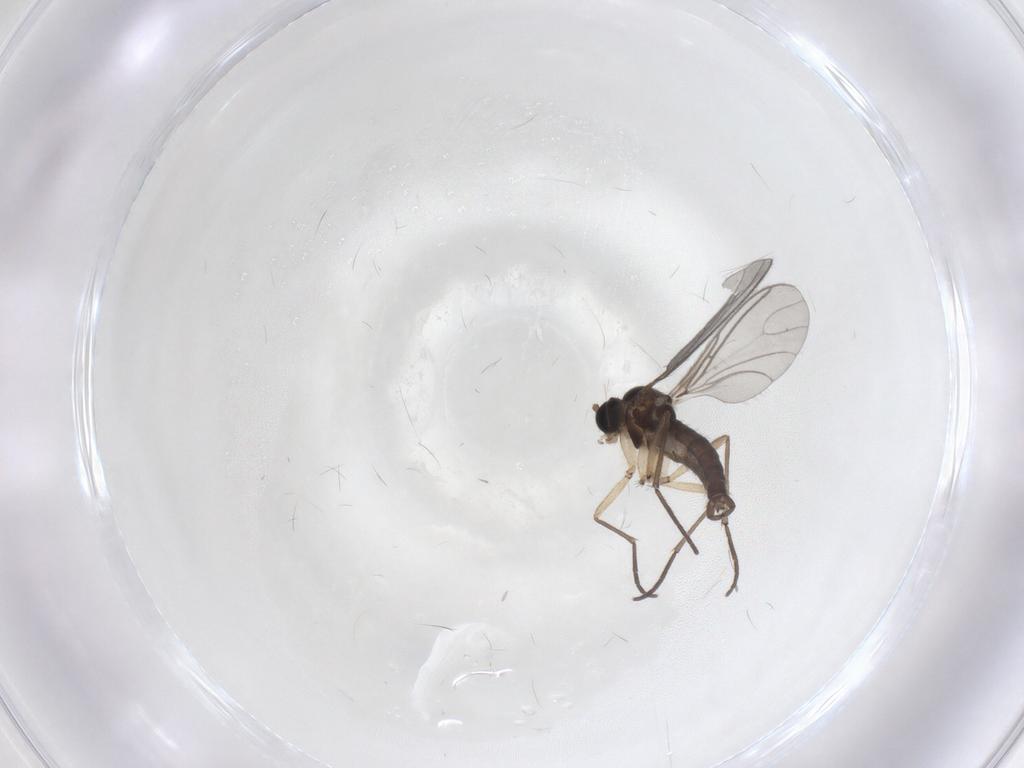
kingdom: Animalia
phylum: Arthropoda
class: Insecta
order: Diptera
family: Sciaridae
